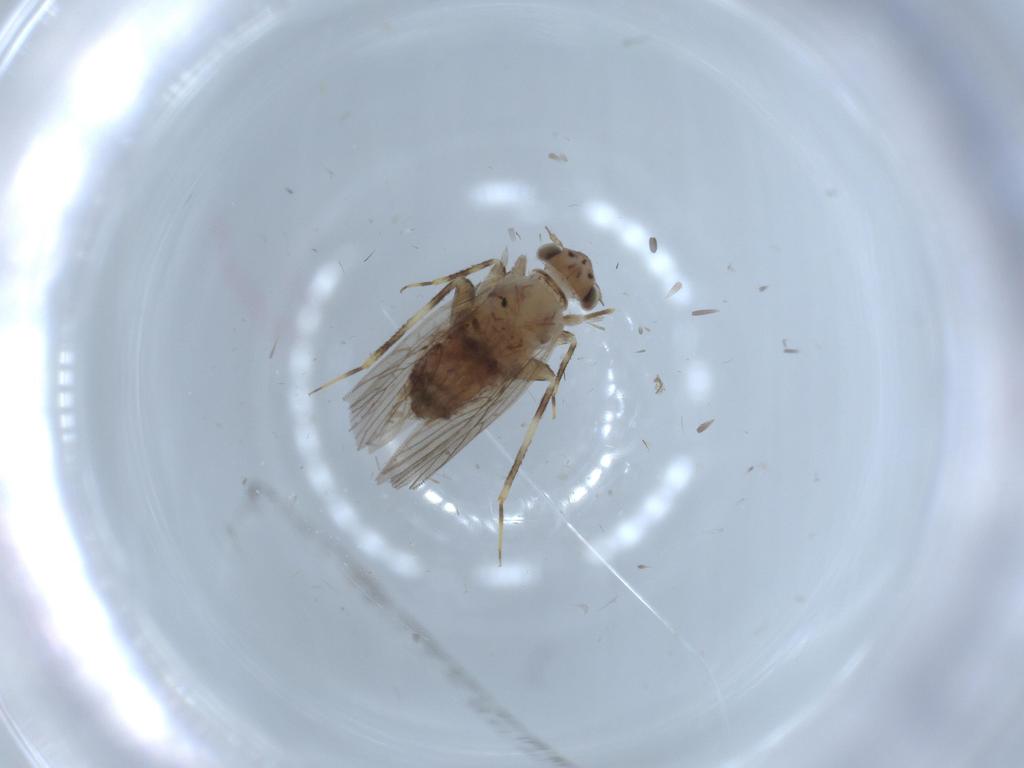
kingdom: Animalia
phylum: Arthropoda
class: Insecta
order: Psocodea
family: Lepidopsocidae
